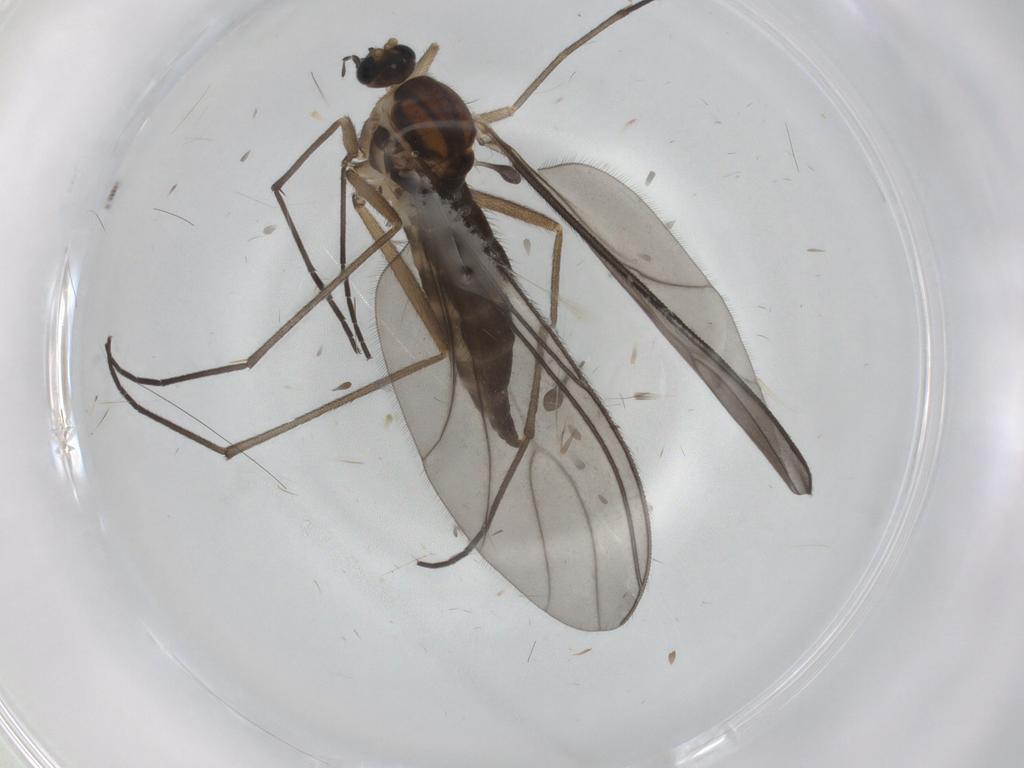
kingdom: Animalia
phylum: Arthropoda
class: Insecta
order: Diptera
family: Sciaridae
